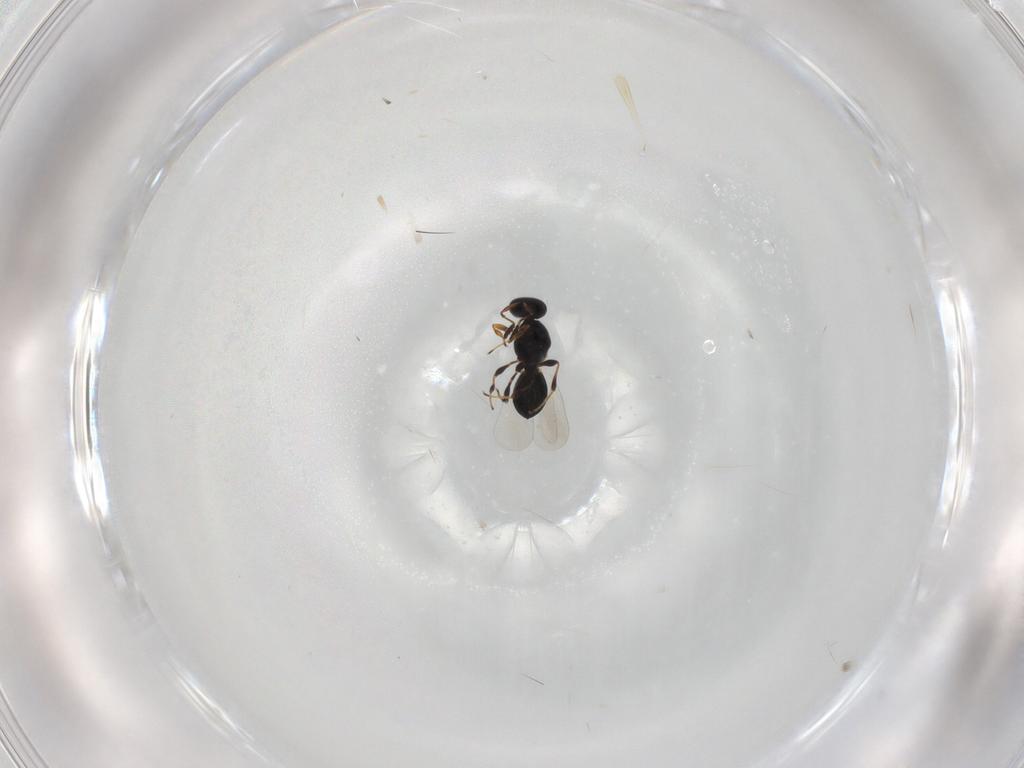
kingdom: Animalia
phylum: Arthropoda
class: Insecta
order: Hymenoptera
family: Platygastridae
